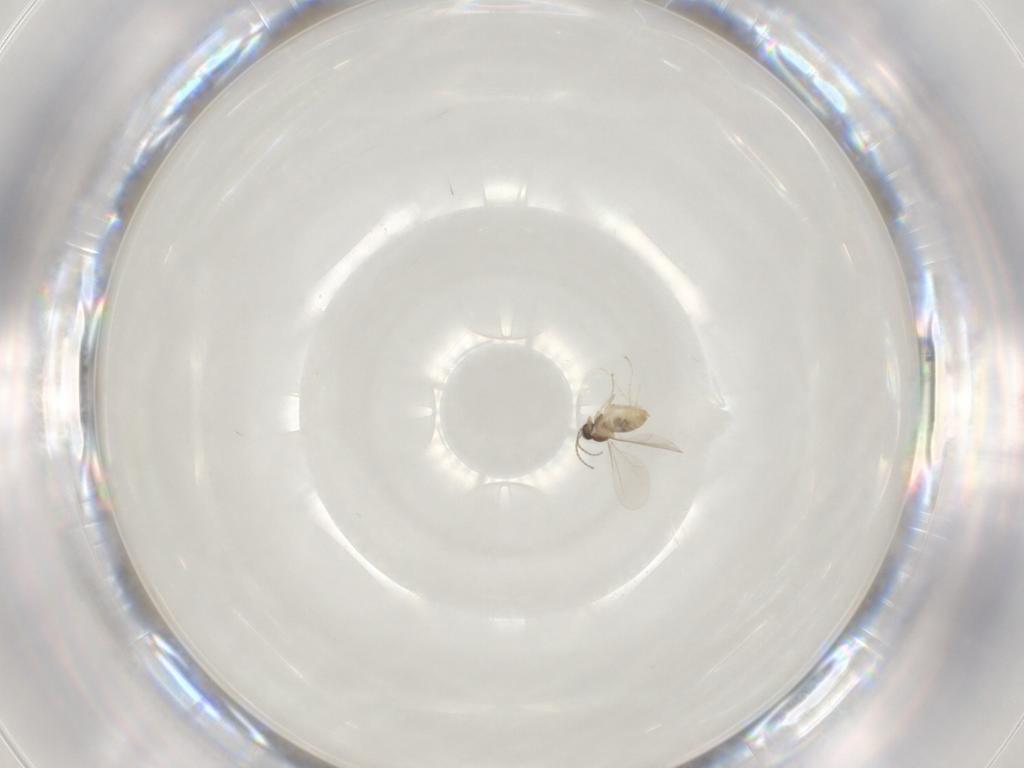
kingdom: Animalia
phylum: Arthropoda
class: Insecta
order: Diptera
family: Cecidomyiidae
